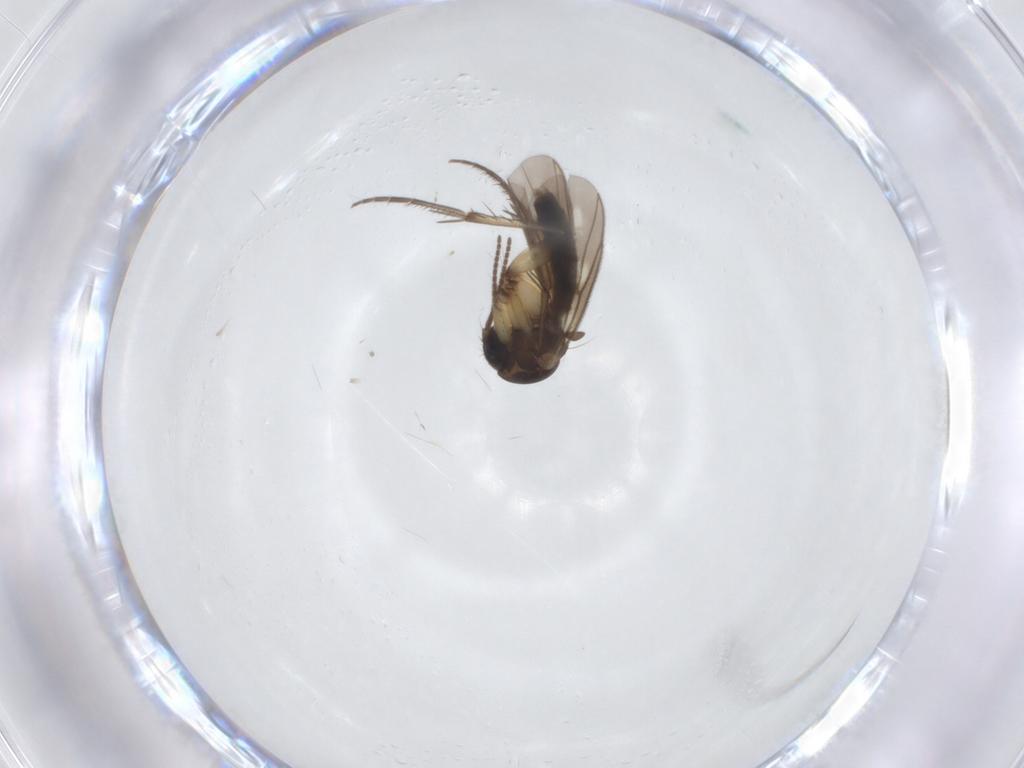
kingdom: Animalia
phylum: Arthropoda
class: Insecta
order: Diptera
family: Mycetophilidae
